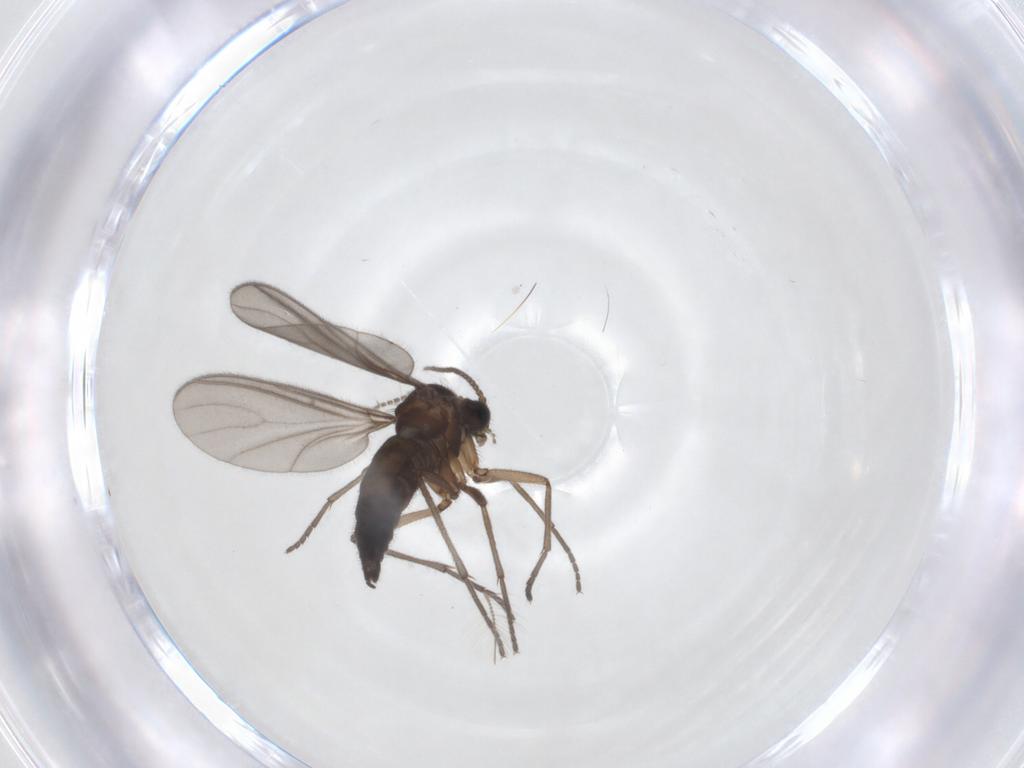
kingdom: Animalia
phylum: Arthropoda
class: Insecta
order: Diptera
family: Sciaridae
